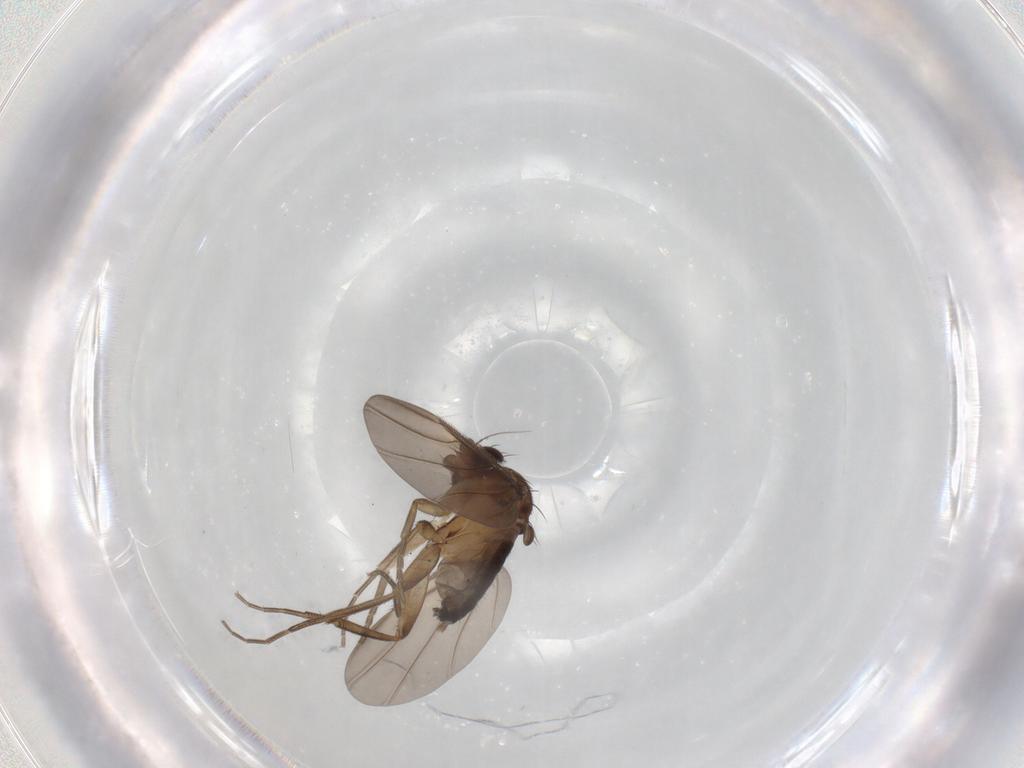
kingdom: Animalia
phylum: Arthropoda
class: Insecta
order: Diptera
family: Phoridae
